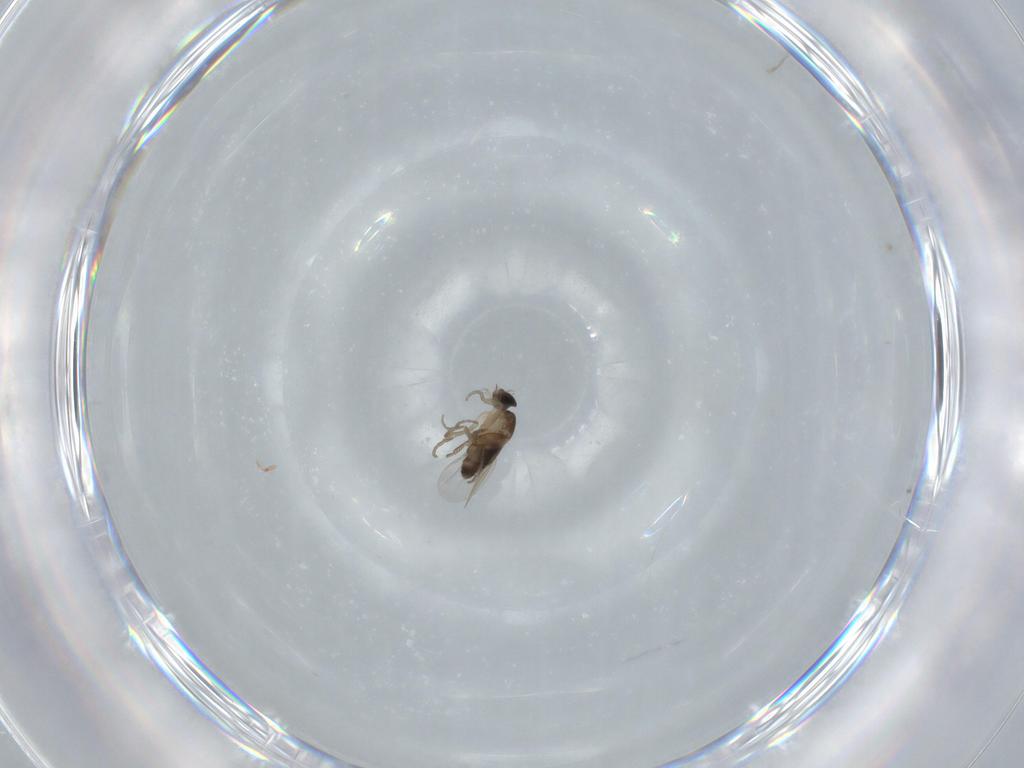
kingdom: Animalia
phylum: Arthropoda
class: Insecta
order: Diptera
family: Phoridae
